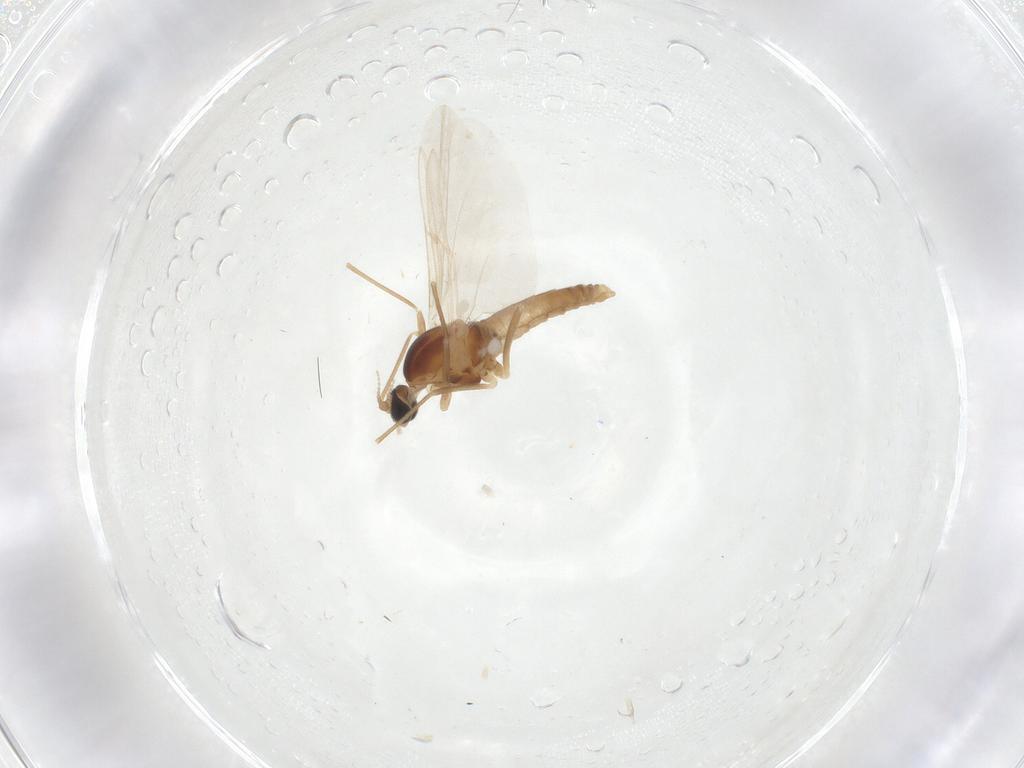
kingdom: Animalia
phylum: Arthropoda
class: Insecta
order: Diptera
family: Cecidomyiidae
